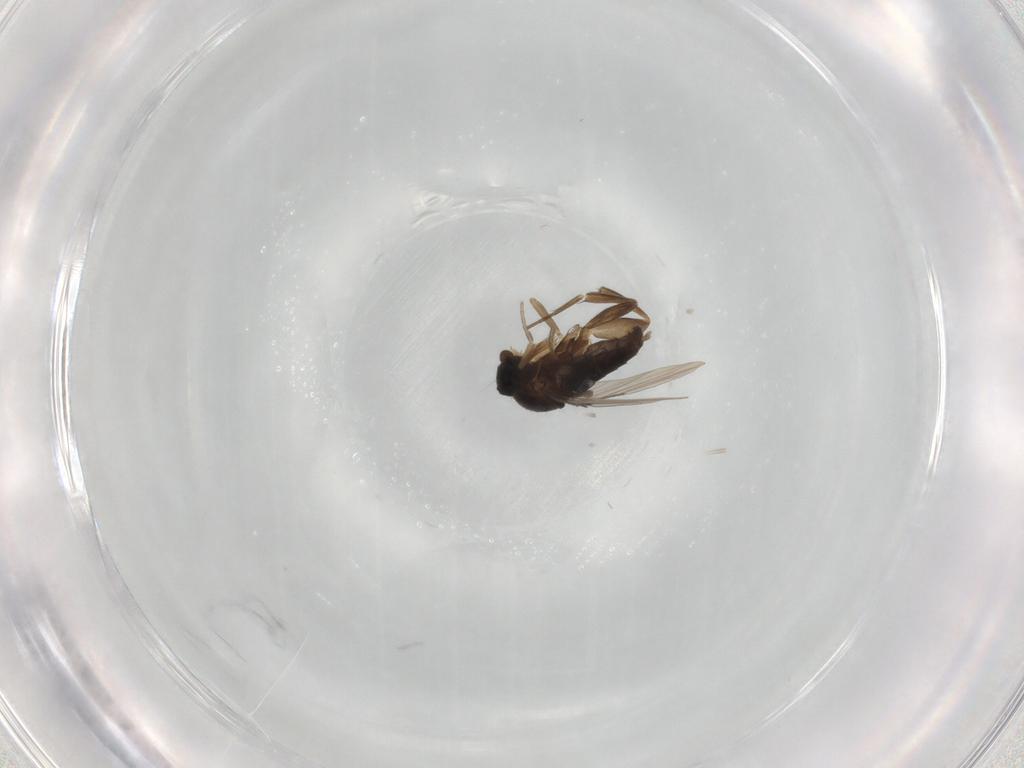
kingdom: Animalia
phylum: Arthropoda
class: Insecta
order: Diptera
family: Phoridae
